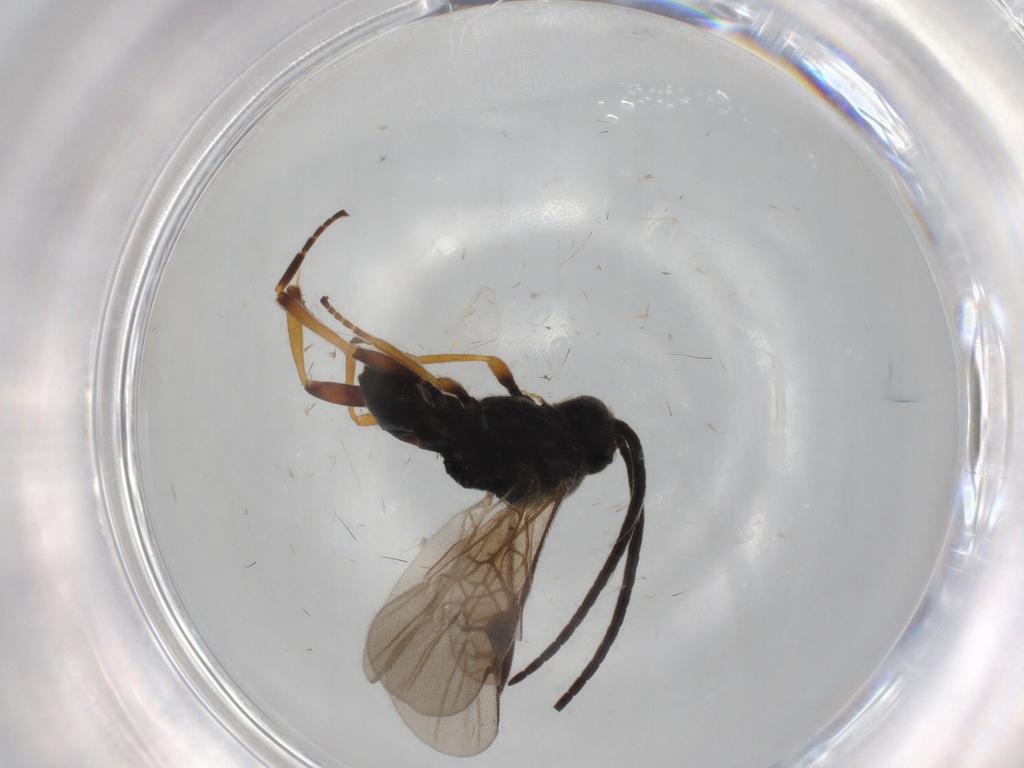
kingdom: Animalia
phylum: Arthropoda
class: Insecta
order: Hymenoptera
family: Braconidae
